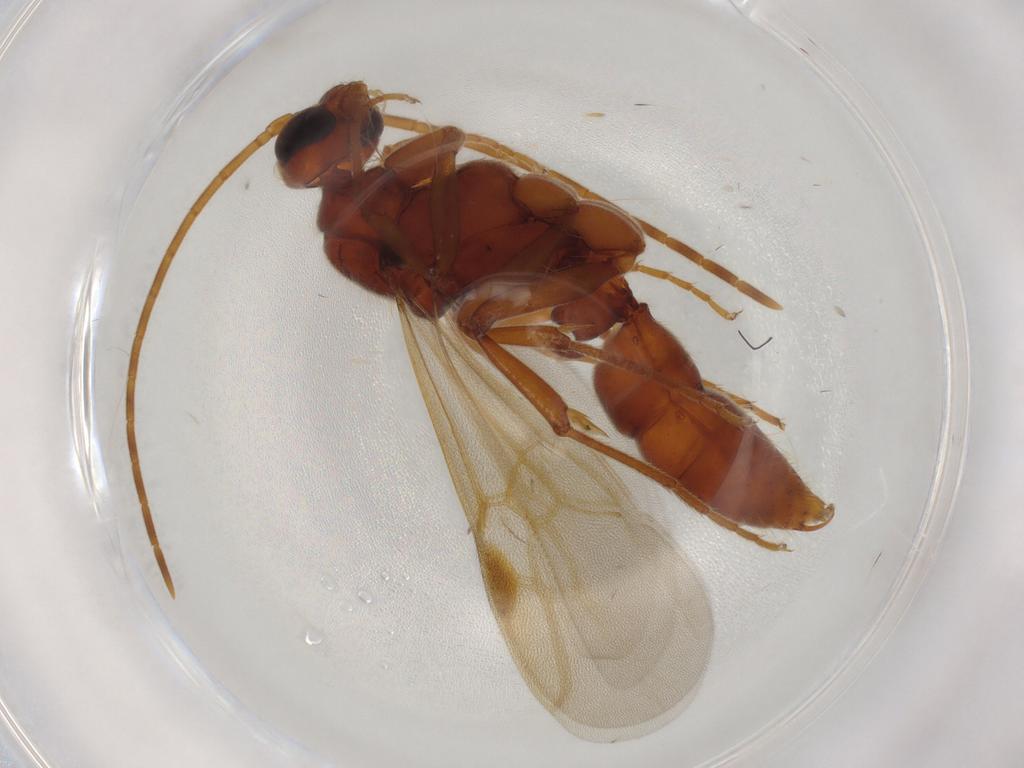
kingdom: Animalia
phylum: Arthropoda
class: Insecta
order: Hymenoptera
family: Formicidae
